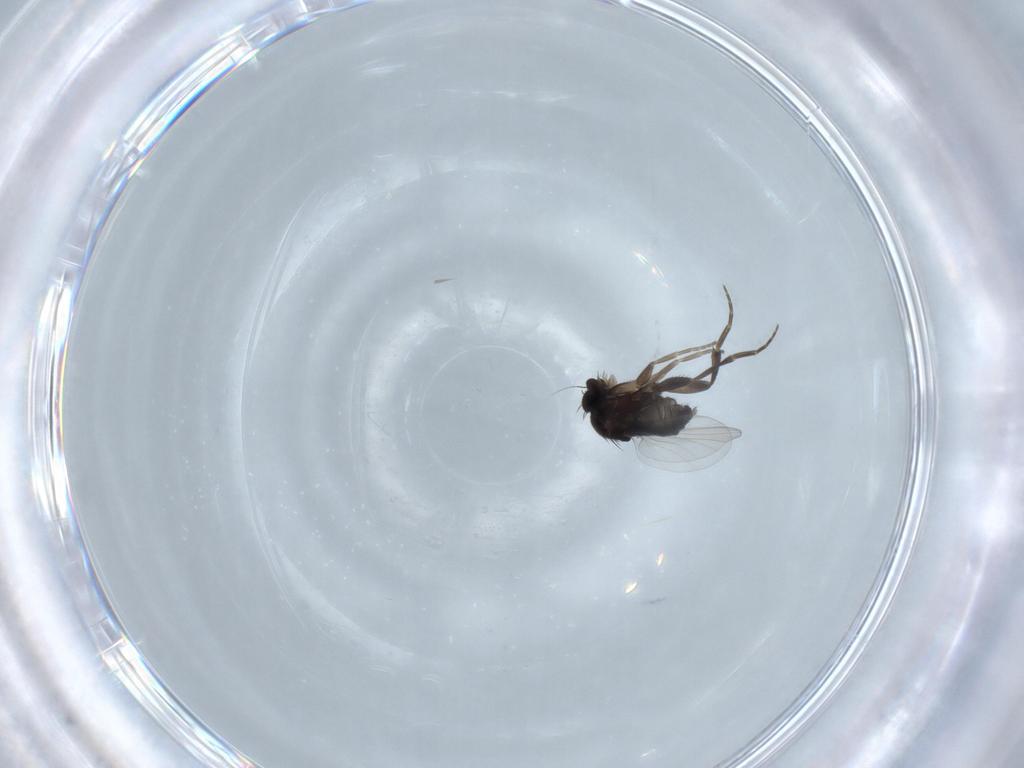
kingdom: Animalia
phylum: Arthropoda
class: Insecta
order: Diptera
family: Phoridae
